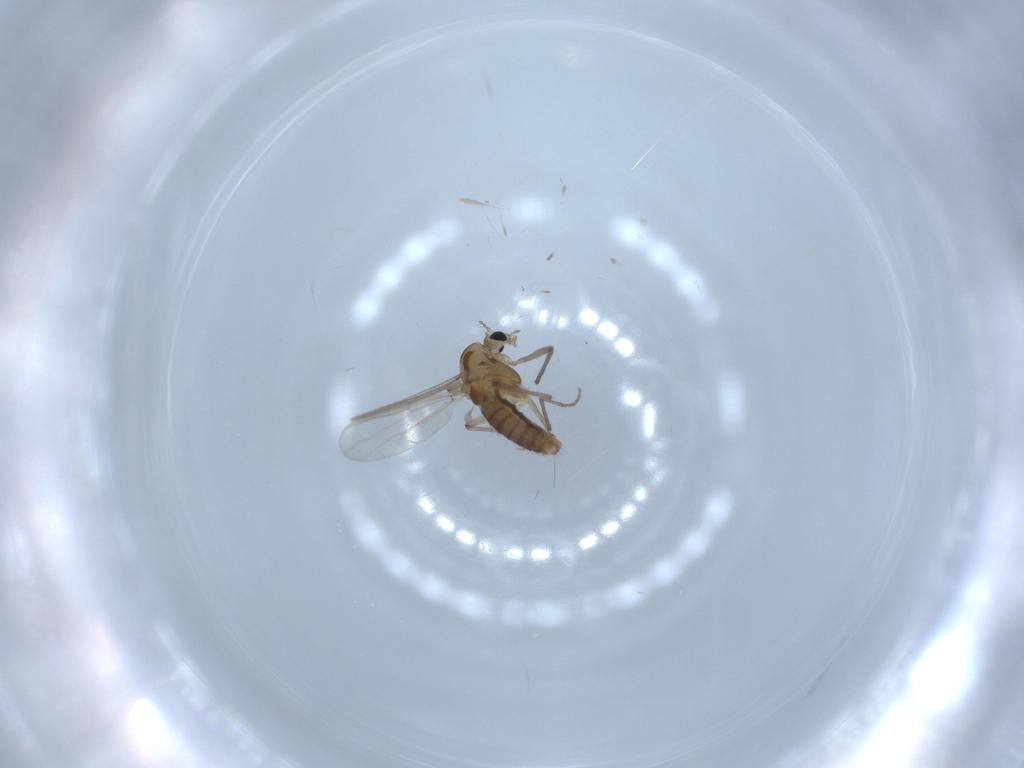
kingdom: Animalia
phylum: Arthropoda
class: Insecta
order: Diptera
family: Chironomidae
